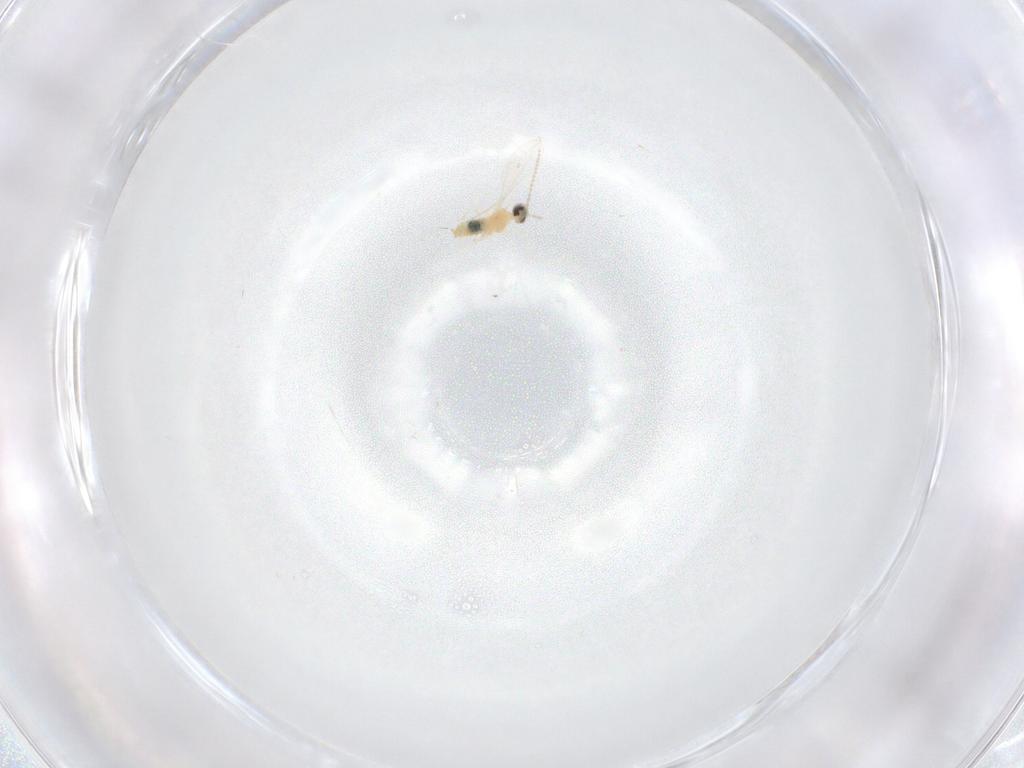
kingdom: Animalia
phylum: Arthropoda
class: Insecta
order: Diptera
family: Cecidomyiidae
